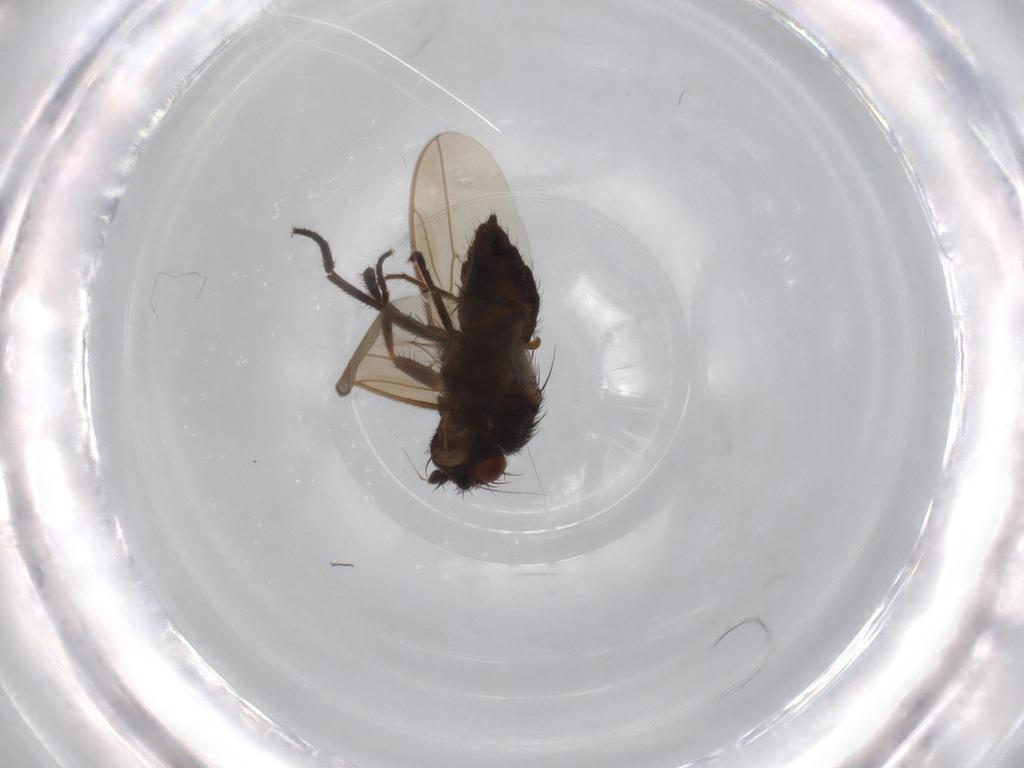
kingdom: Animalia
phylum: Arthropoda
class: Insecta
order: Diptera
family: Sphaeroceridae
